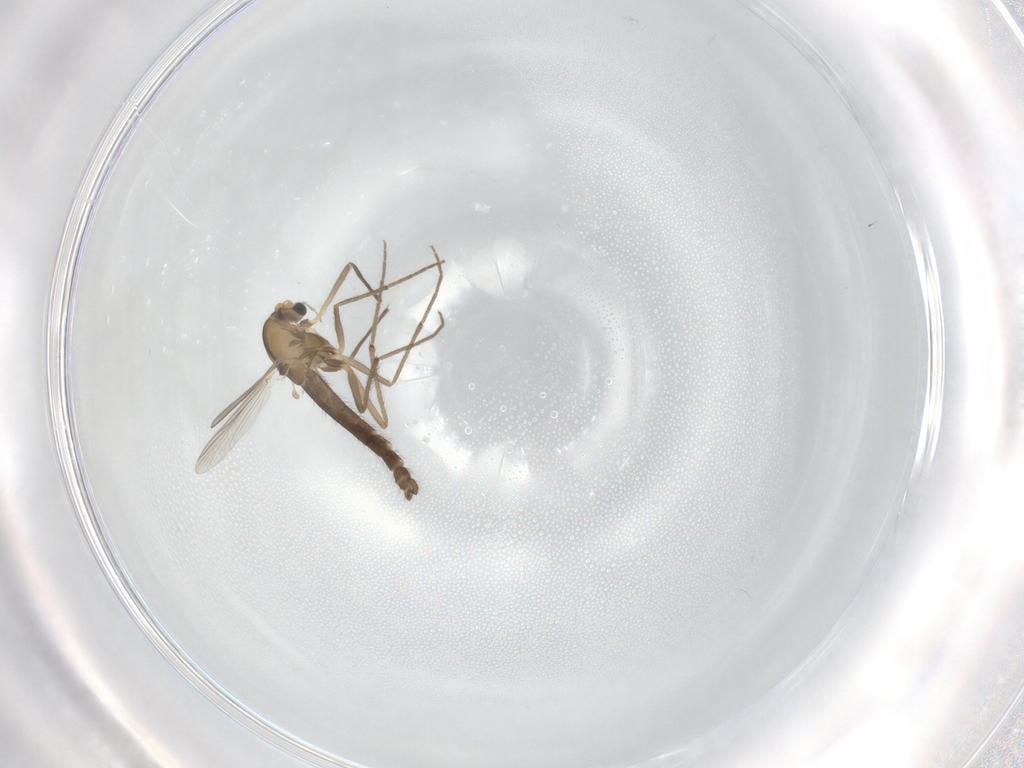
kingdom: Animalia
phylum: Arthropoda
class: Insecta
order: Diptera
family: Chironomidae
